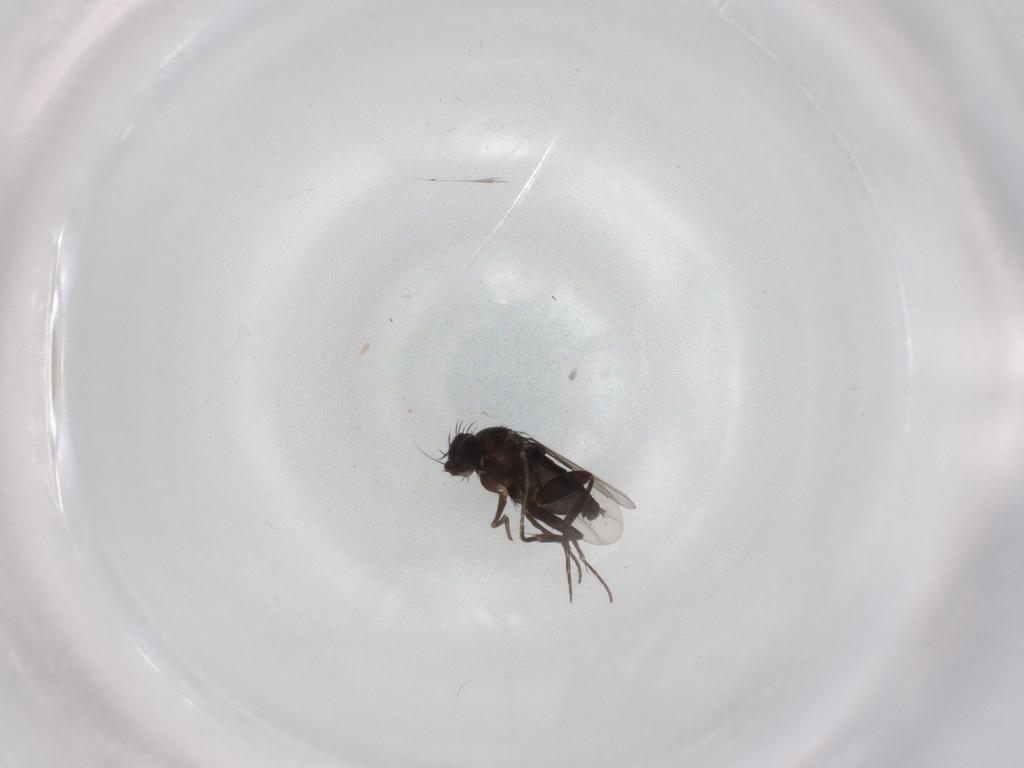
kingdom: Animalia
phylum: Arthropoda
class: Insecta
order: Diptera
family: Phoridae
